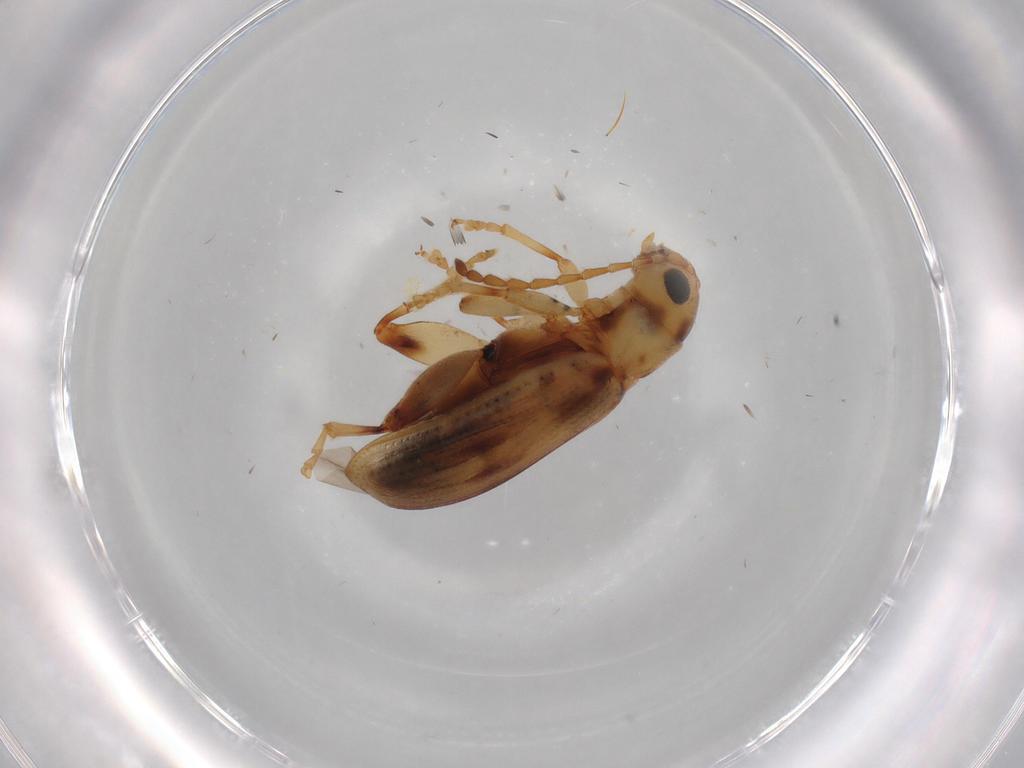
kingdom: Animalia
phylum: Arthropoda
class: Insecta
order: Coleoptera
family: Chrysomelidae
